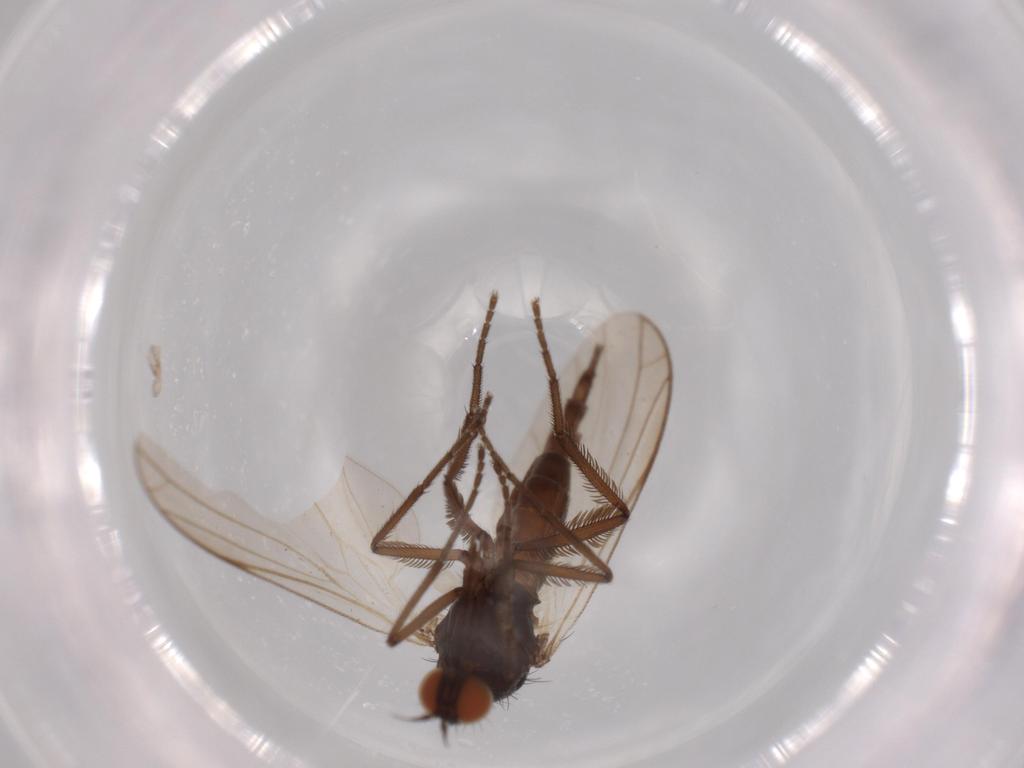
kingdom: Animalia
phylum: Arthropoda
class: Insecta
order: Diptera
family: Empididae
